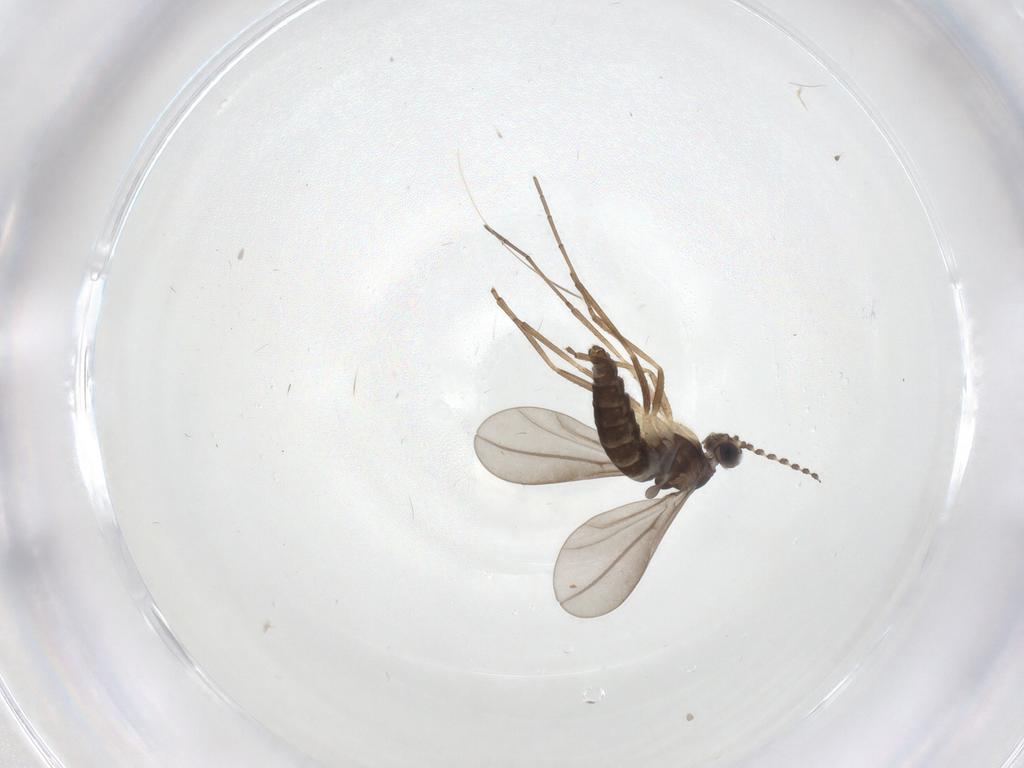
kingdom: Animalia
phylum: Arthropoda
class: Insecta
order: Diptera
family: Cecidomyiidae
